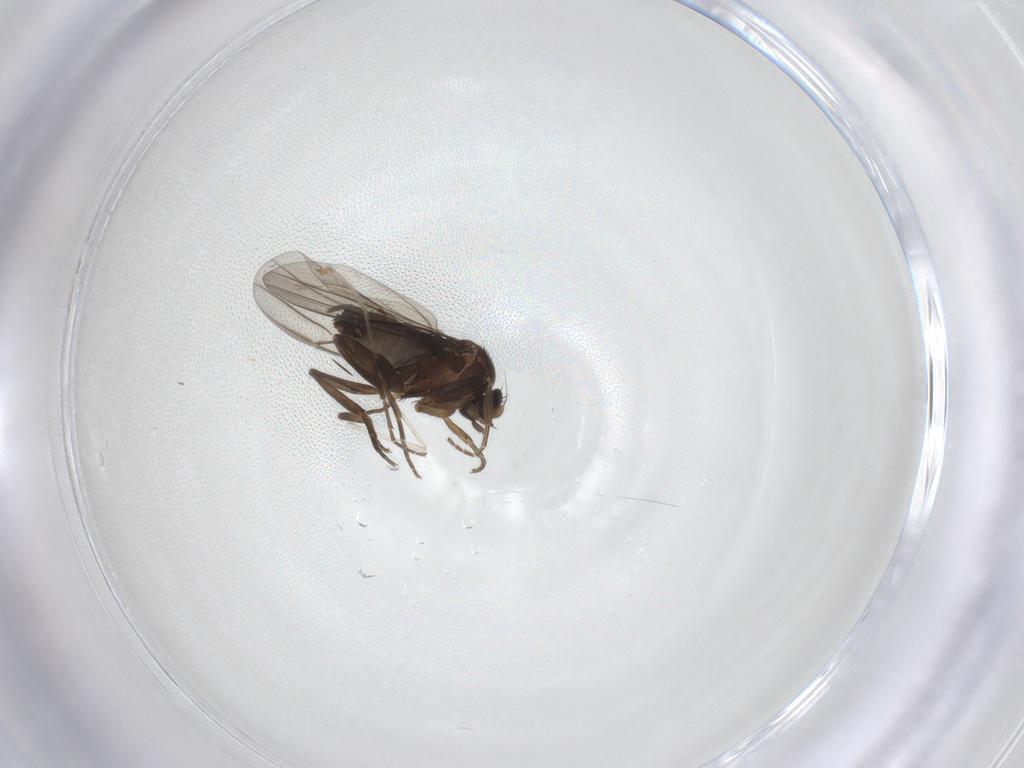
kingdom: Animalia
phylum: Arthropoda
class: Insecta
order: Diptera
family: Cecidomyiidae
